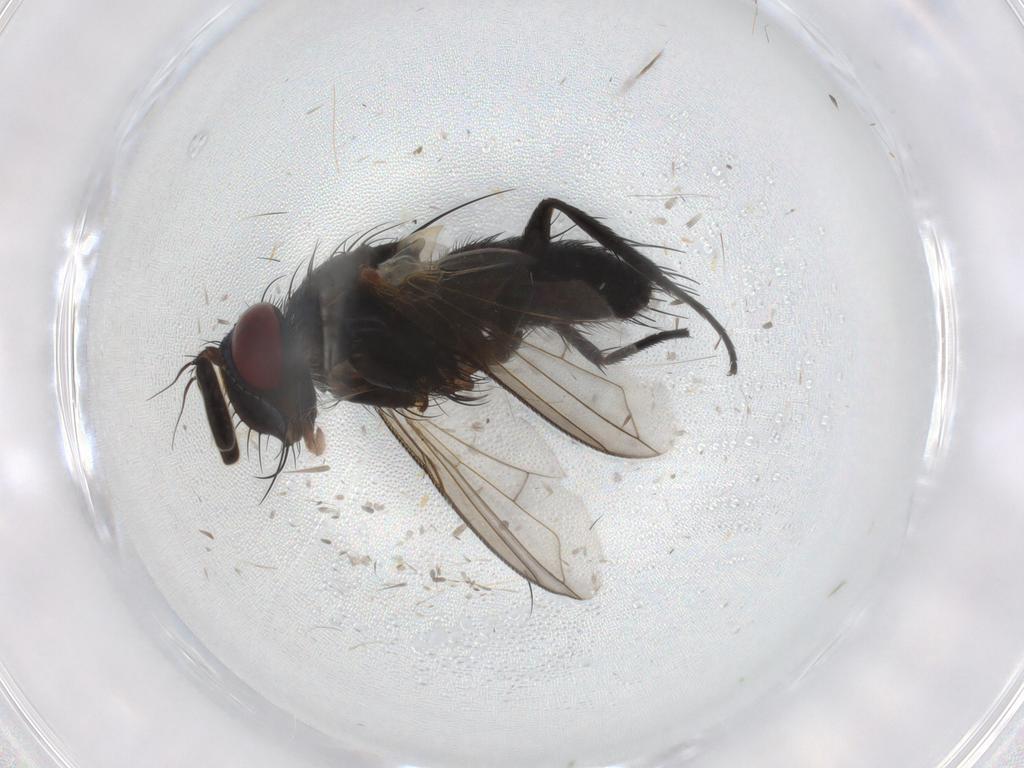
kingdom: Animalia
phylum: Arthropoda
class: Insecta
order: Diptera
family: Tachinidae
